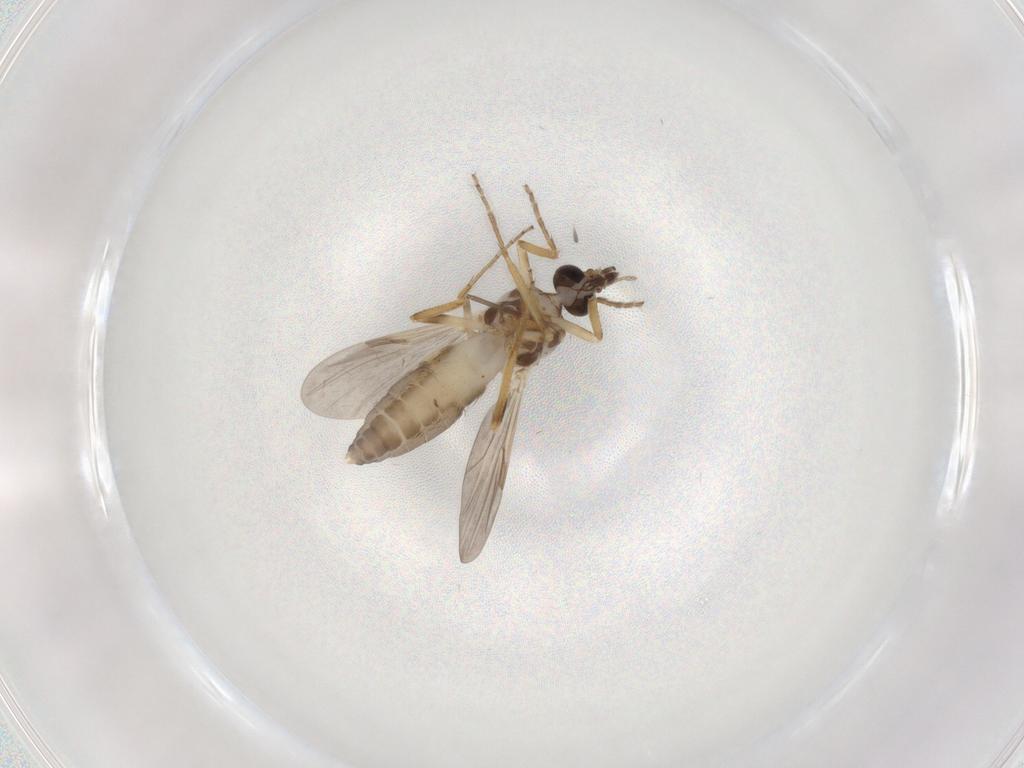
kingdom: Animalia
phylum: Arthropoda
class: Insecta
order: Diptera
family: Ceratopogonidae
